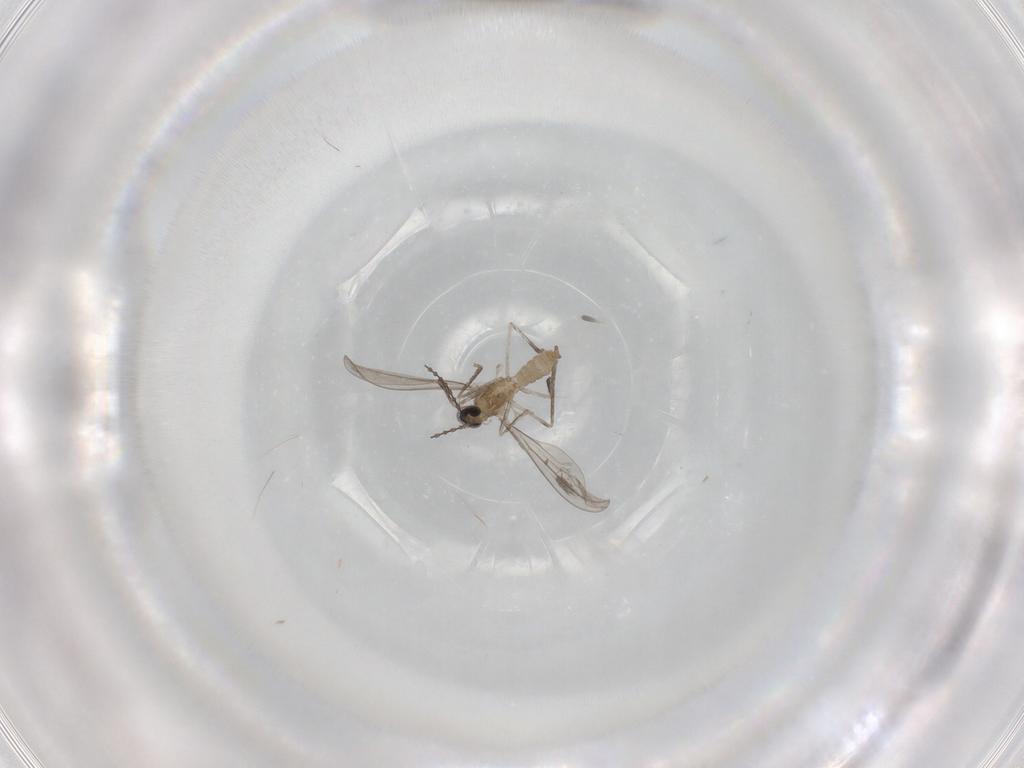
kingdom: Animalia
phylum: Arthropoda
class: Insecta
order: Diptera
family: Cecidomyiidae
